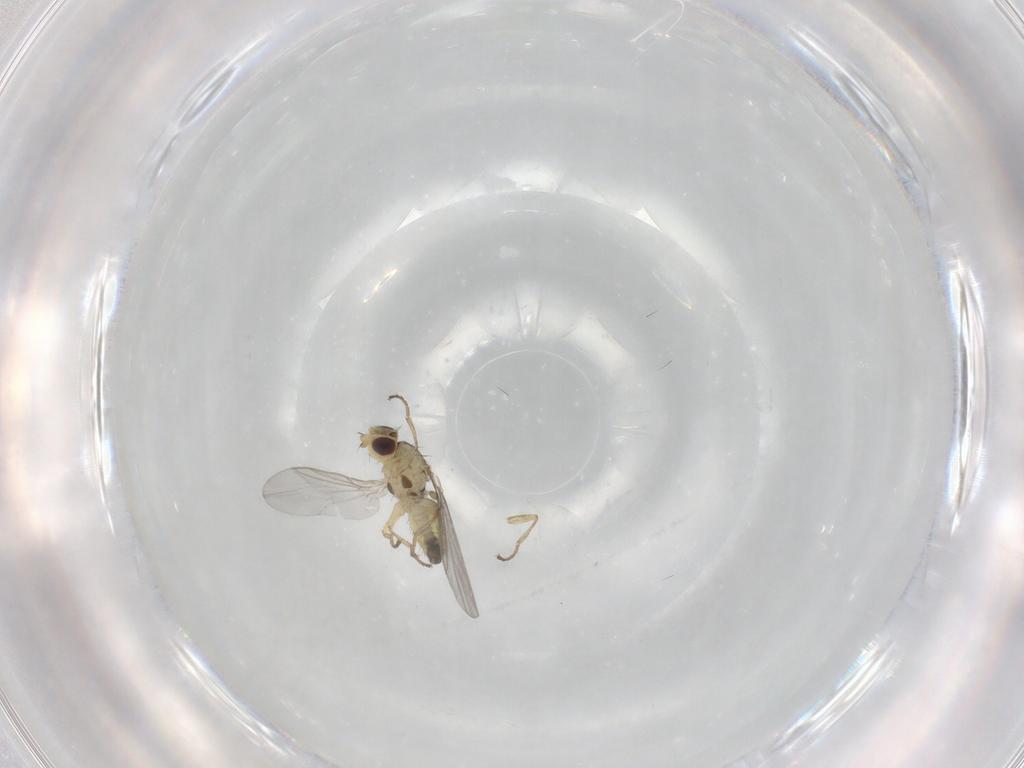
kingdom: Animalia
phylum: Arthropoda
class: Insecta
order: Diptera
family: Agromyzidae
